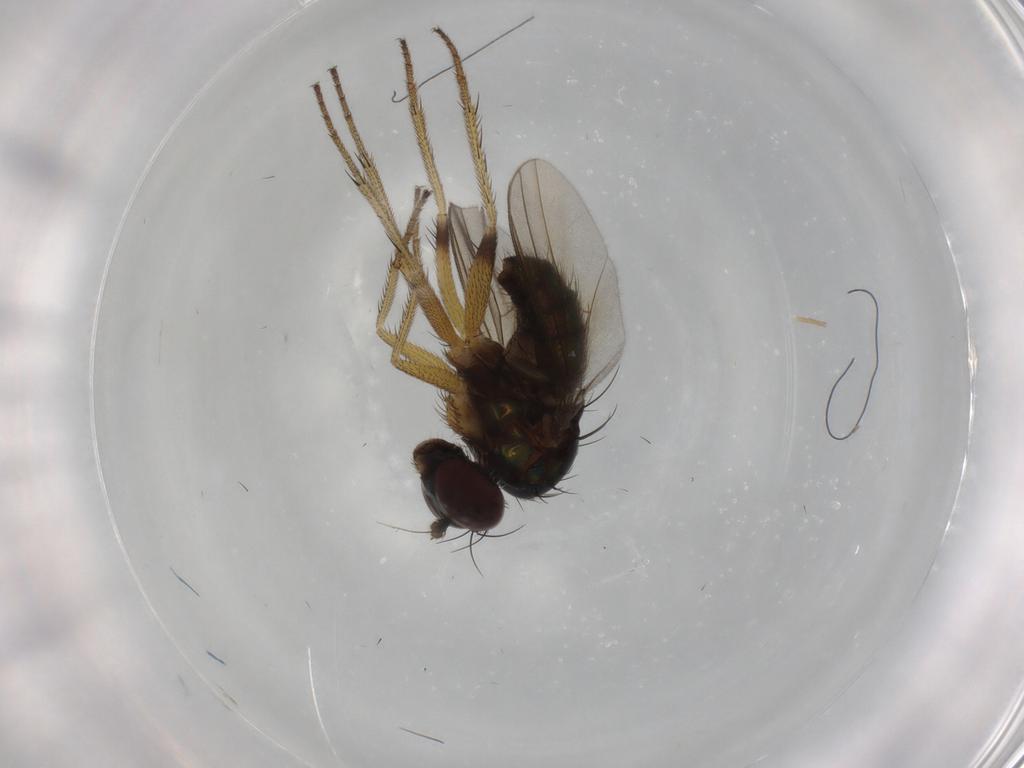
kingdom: Animalia
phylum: Arthropoda
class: Insecta
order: Diptera
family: Dolichopodidae
